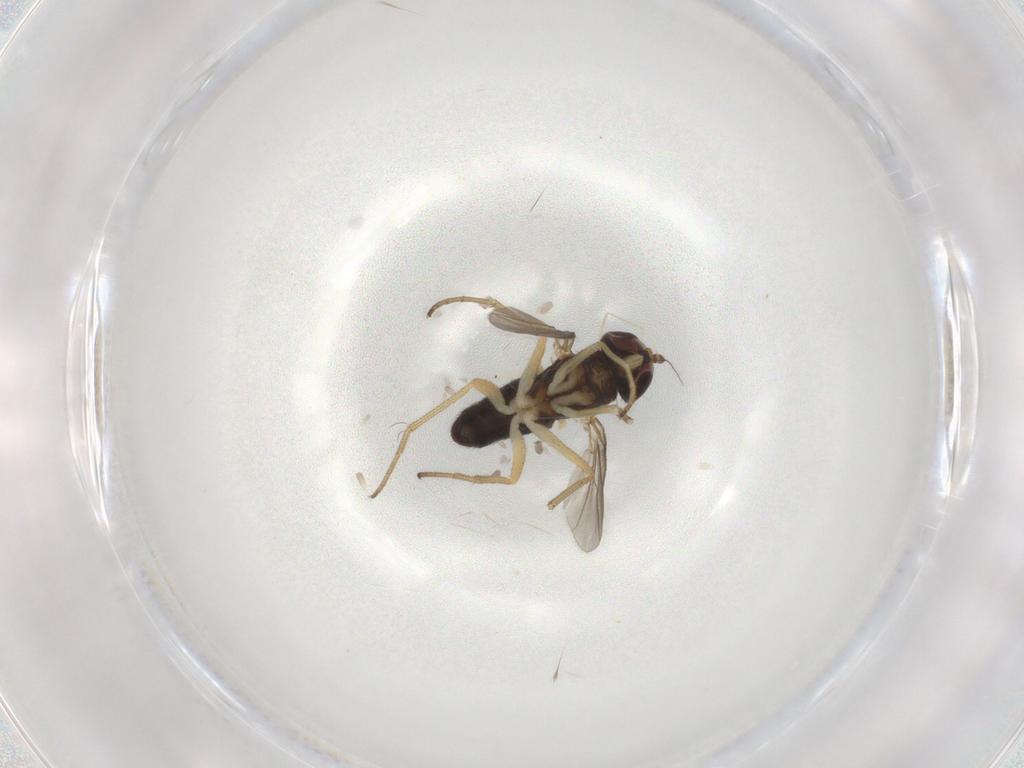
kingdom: Animalia
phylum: Arthropoda
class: Insecta
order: Diptera
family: Dolichopodidae
